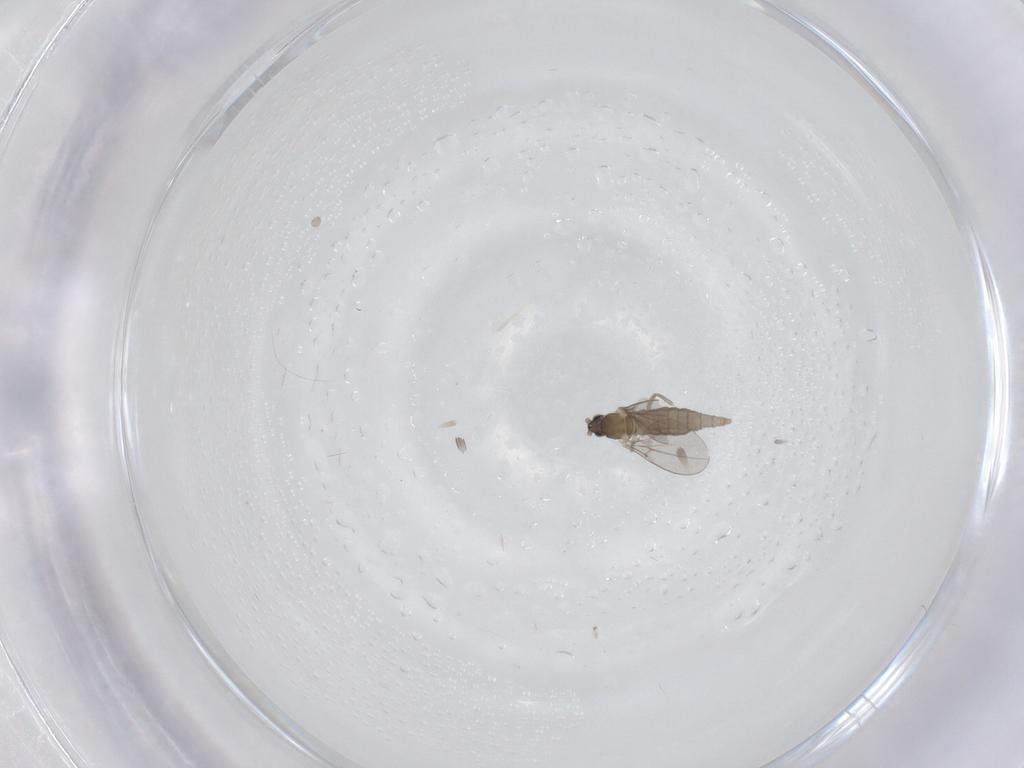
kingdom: Animalia
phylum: Arthropoda
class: Insecta
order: Diptera
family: Cecidomyiidae
